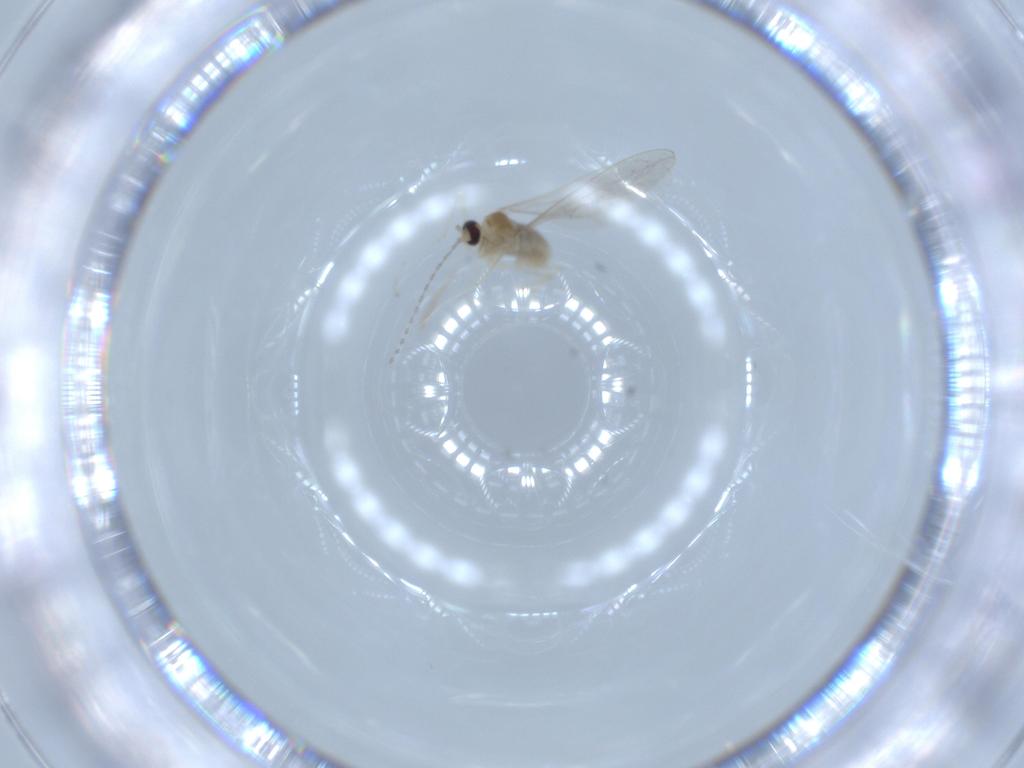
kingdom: Animalia
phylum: Arthropoda
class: Insecta
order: Diptera
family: Cecidomyiidae
